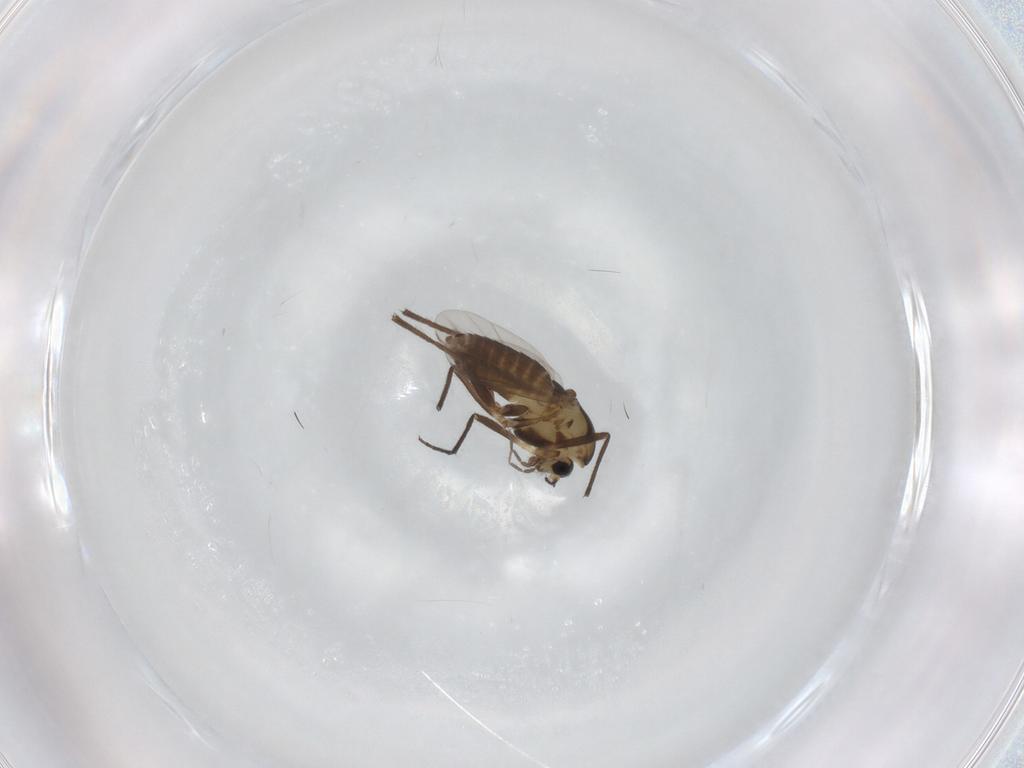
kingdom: Animalia
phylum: Arthropoda
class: Insecta
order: Diptera
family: Chironomidae
